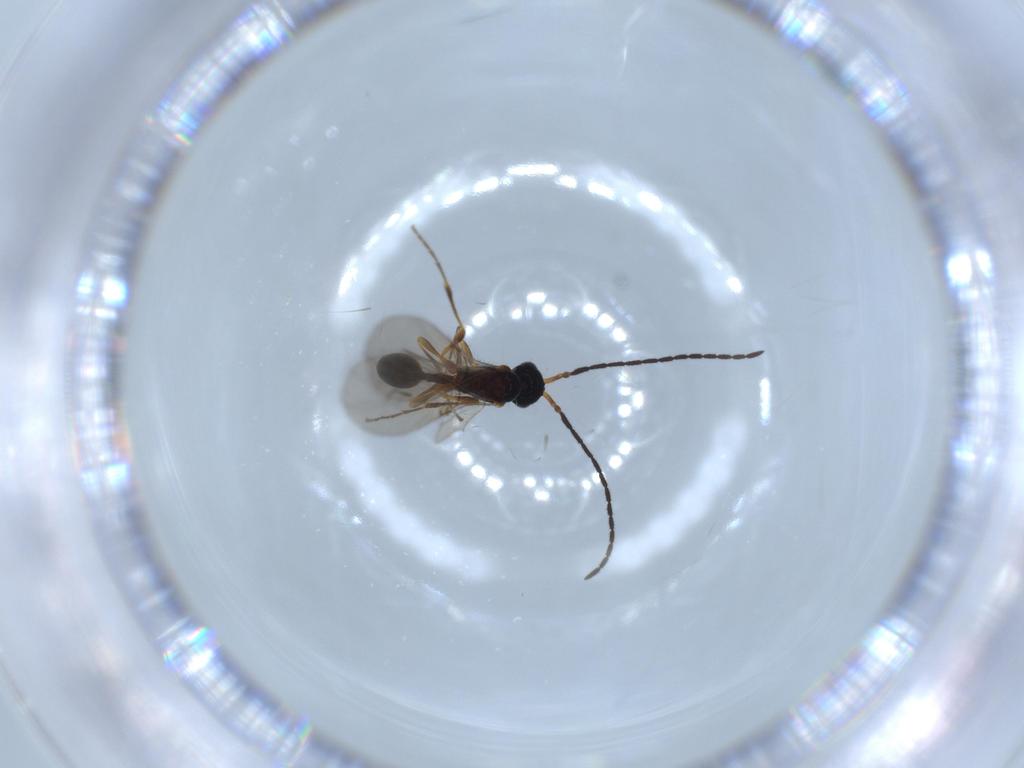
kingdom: Animalia
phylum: Arthropoda
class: Insecta
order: Hymenoptera
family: Diapriidae
